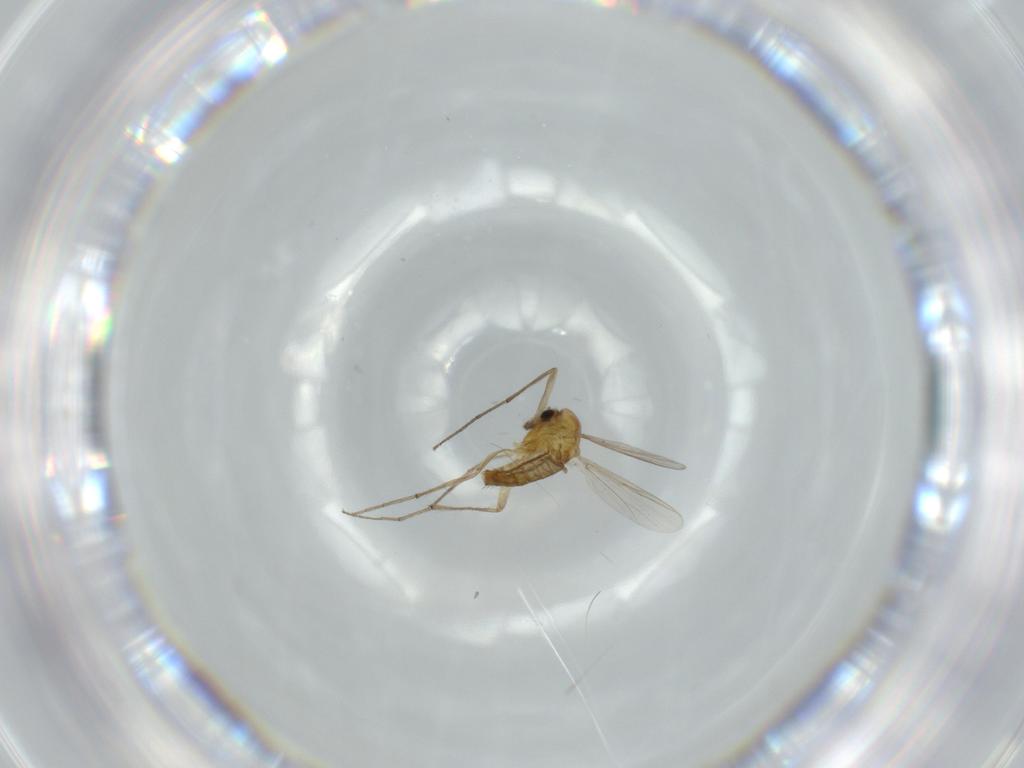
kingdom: Animalia
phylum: Arthropoda
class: Insecta
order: Diptera
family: Chironomidae
